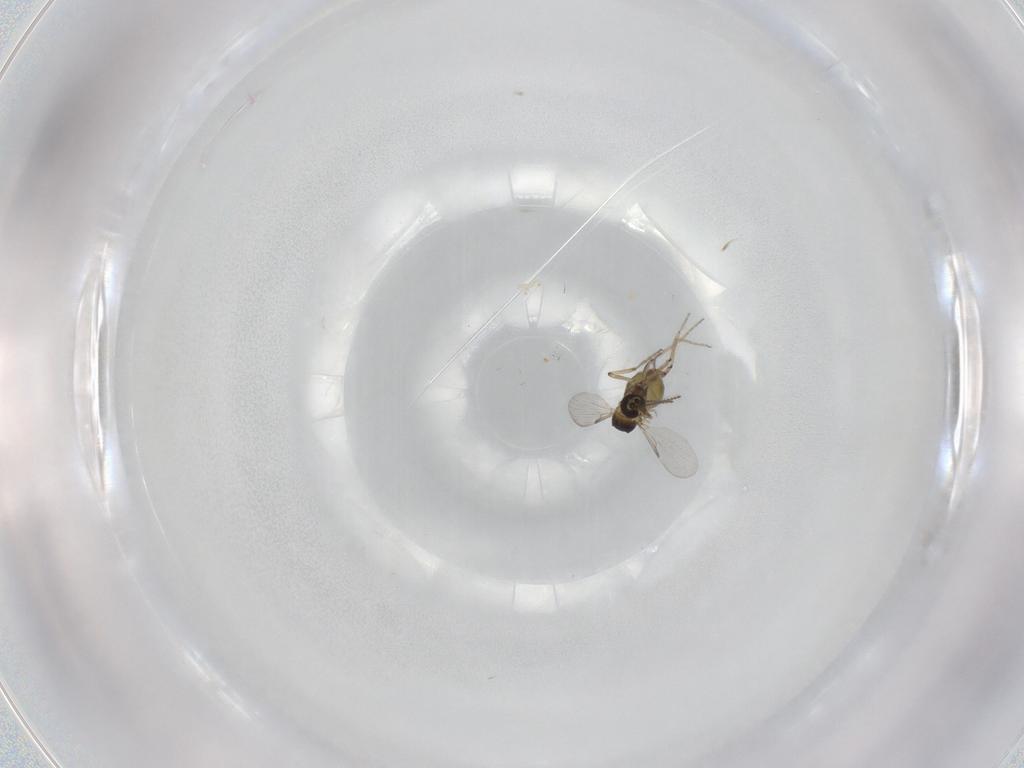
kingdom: Animalia
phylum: Arthropoda
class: Insecta
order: Diptera
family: Ceratopogonidae
